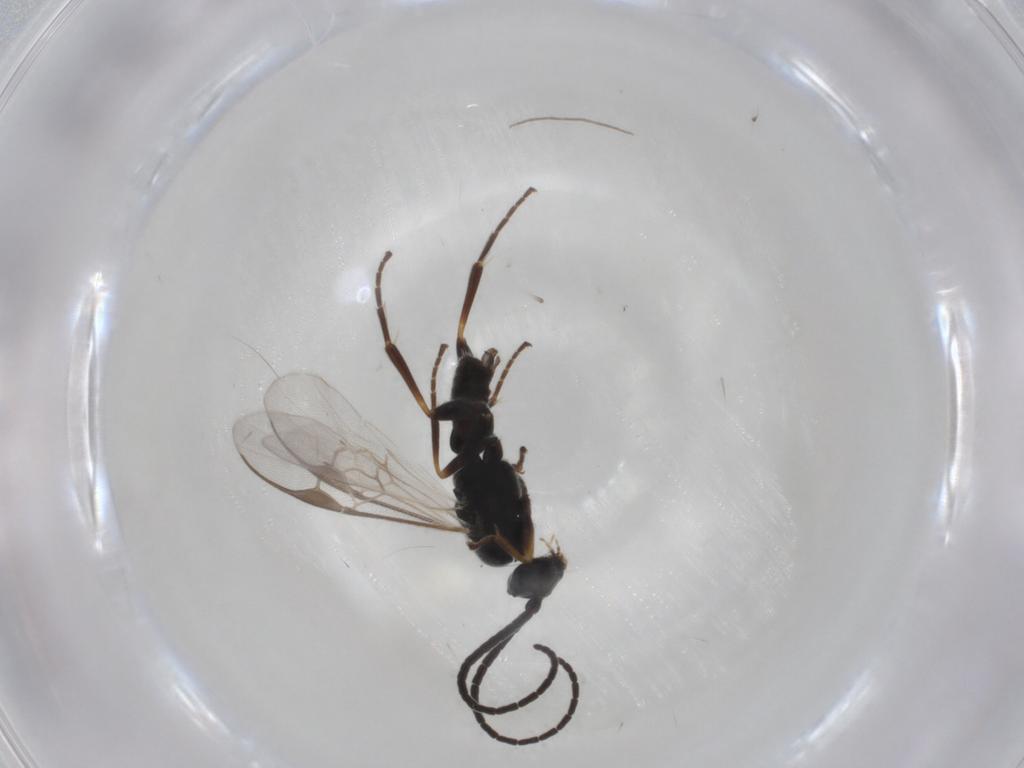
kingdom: Animalia
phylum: Arthropoda
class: Insecta
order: Hymenoptera
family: Braconidae
